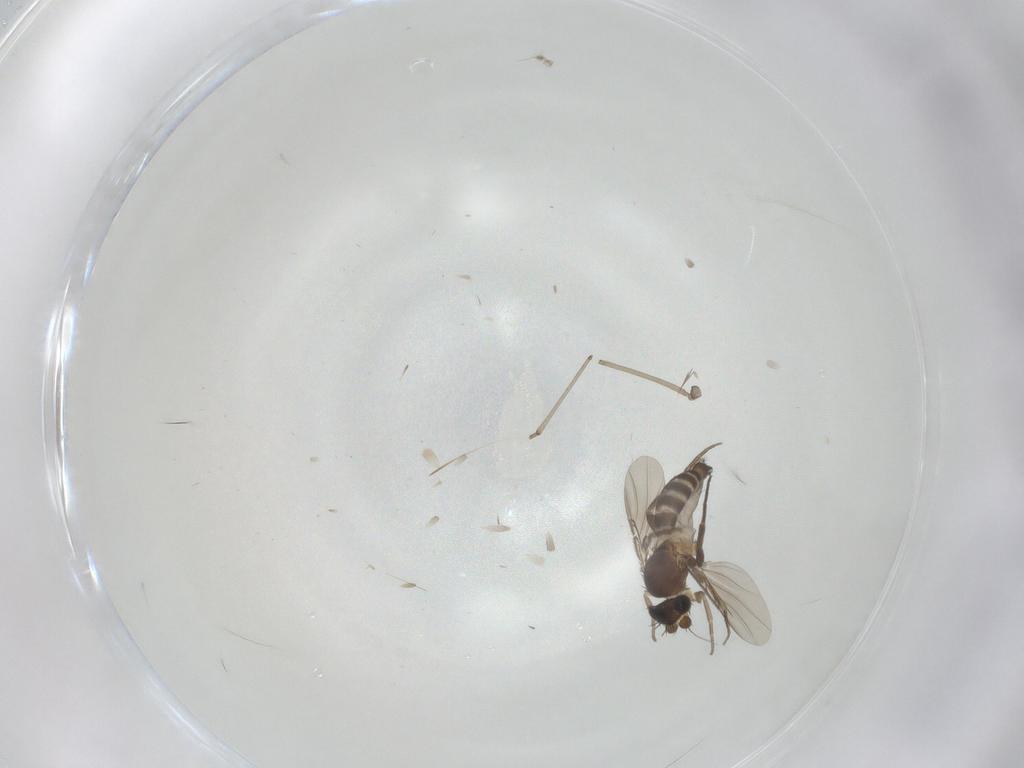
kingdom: Animalia
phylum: Arthropoda
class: Insecta
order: Diptera
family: Phoridae
